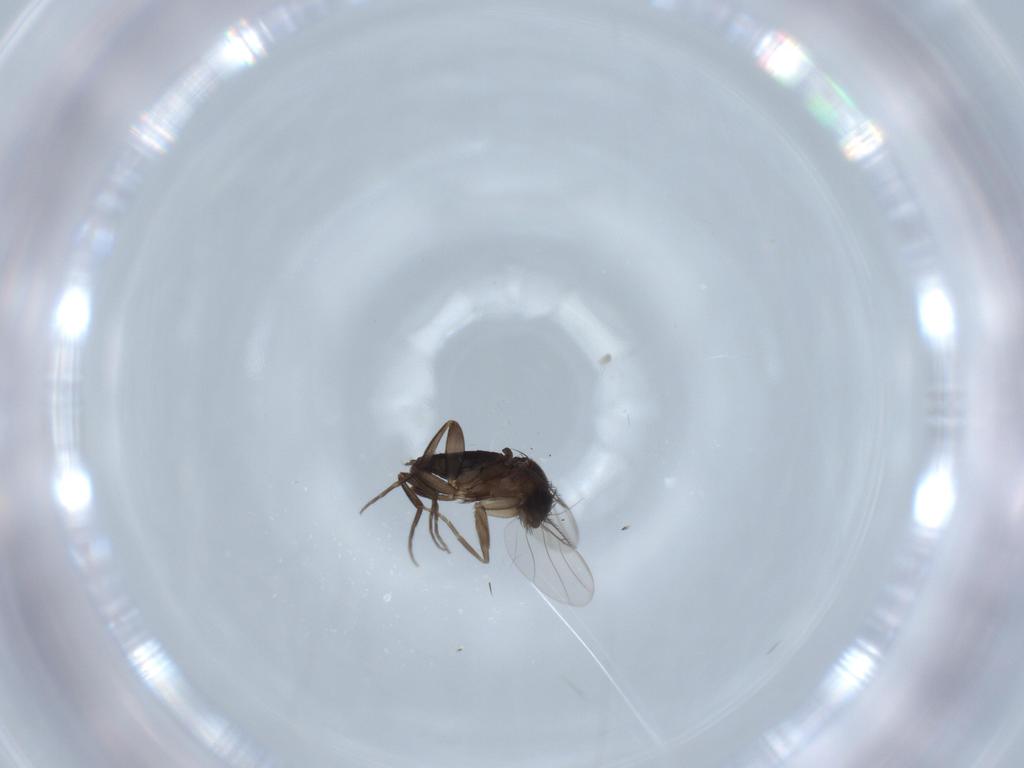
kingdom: Animalia
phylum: Arthropoda
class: Insecta
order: Diptera
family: Phoridae
